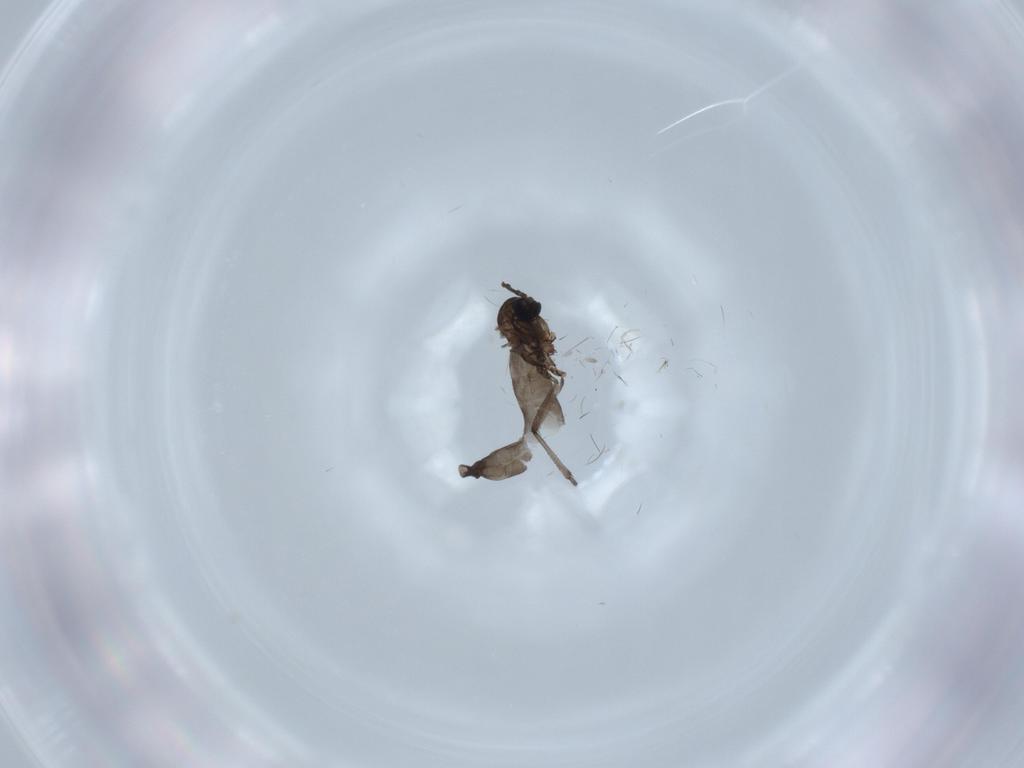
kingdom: Animalia
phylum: Arthropoda
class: Insecta
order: Diptera
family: Sciaridae
